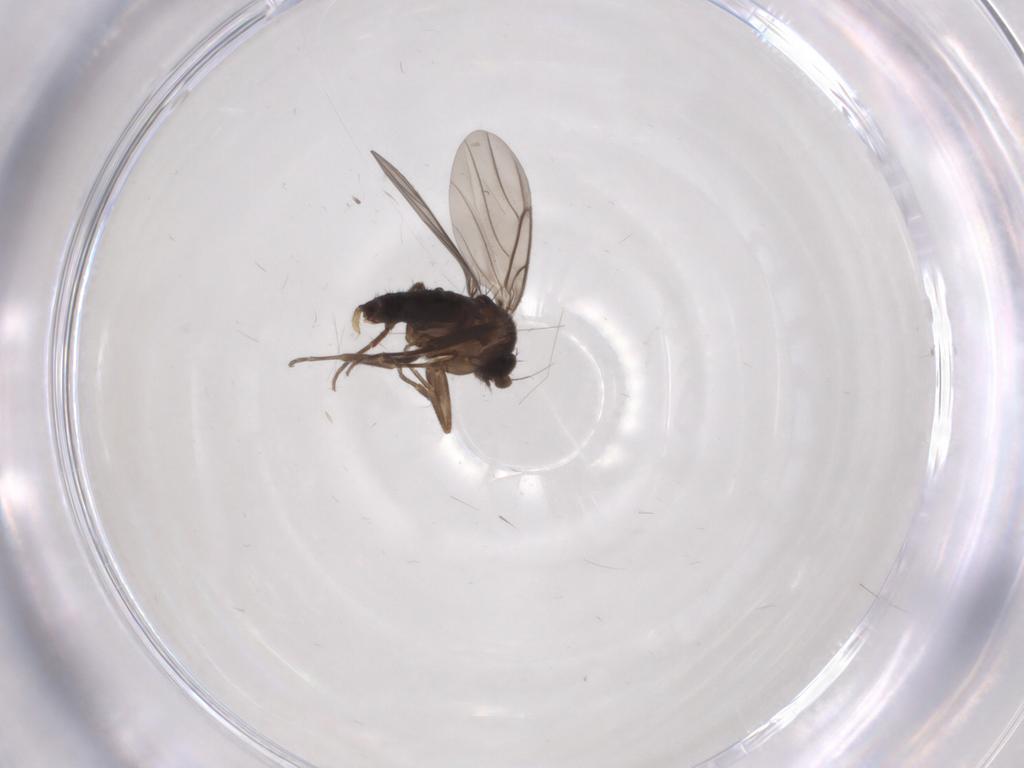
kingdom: Animalia
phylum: Arthropoda
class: Insecta
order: Diptera
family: Phoridae
